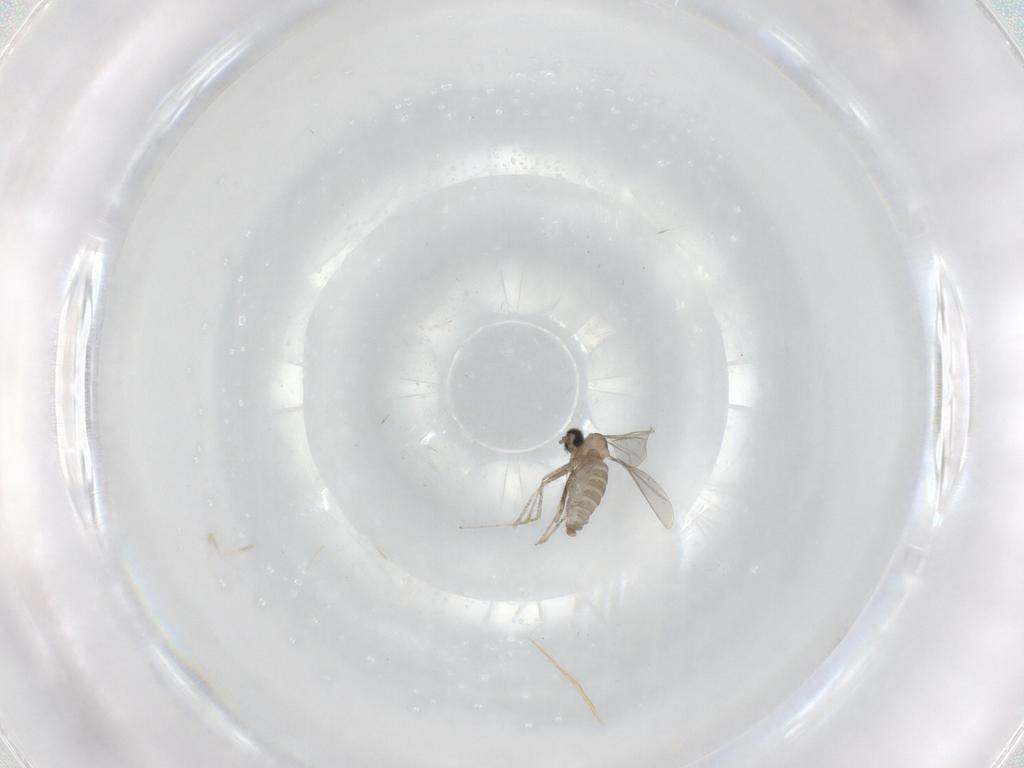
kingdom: Animalia
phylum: Arthropoda
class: Insecta
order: Diptera
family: Cecidomyiidae
